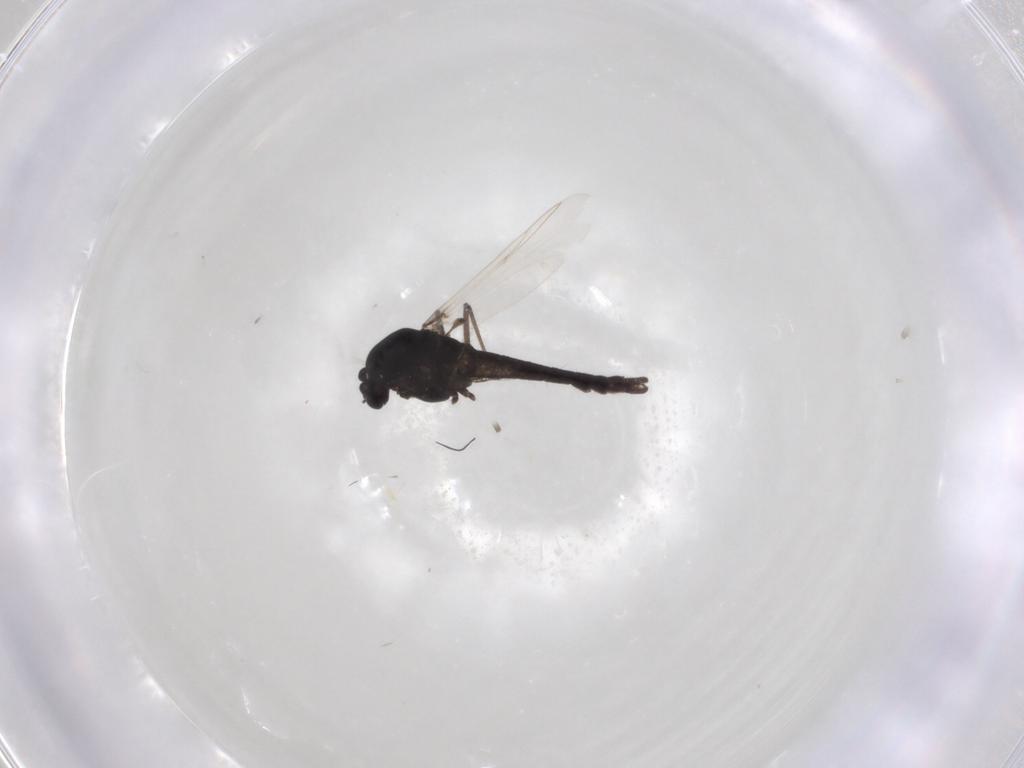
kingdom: Animalia
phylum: Arthropoda
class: Insecta
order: Diptera
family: Chironomidae
